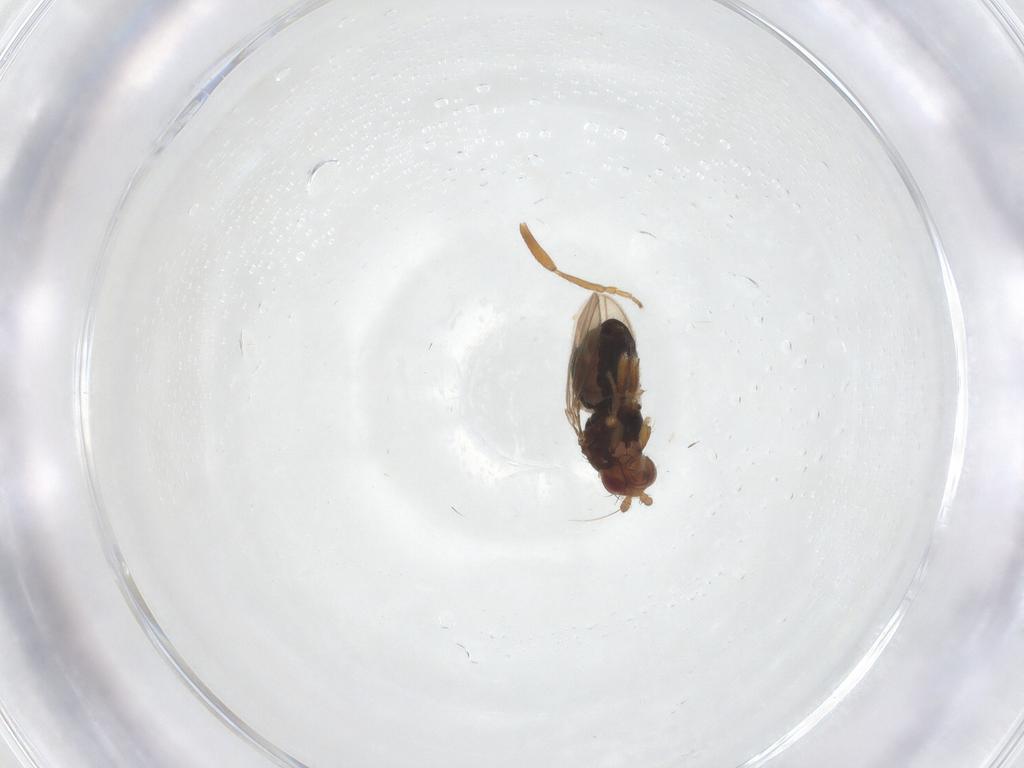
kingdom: Animalia
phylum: Arthropoda
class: Insecta
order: Diptera
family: Sphaeroceridae
